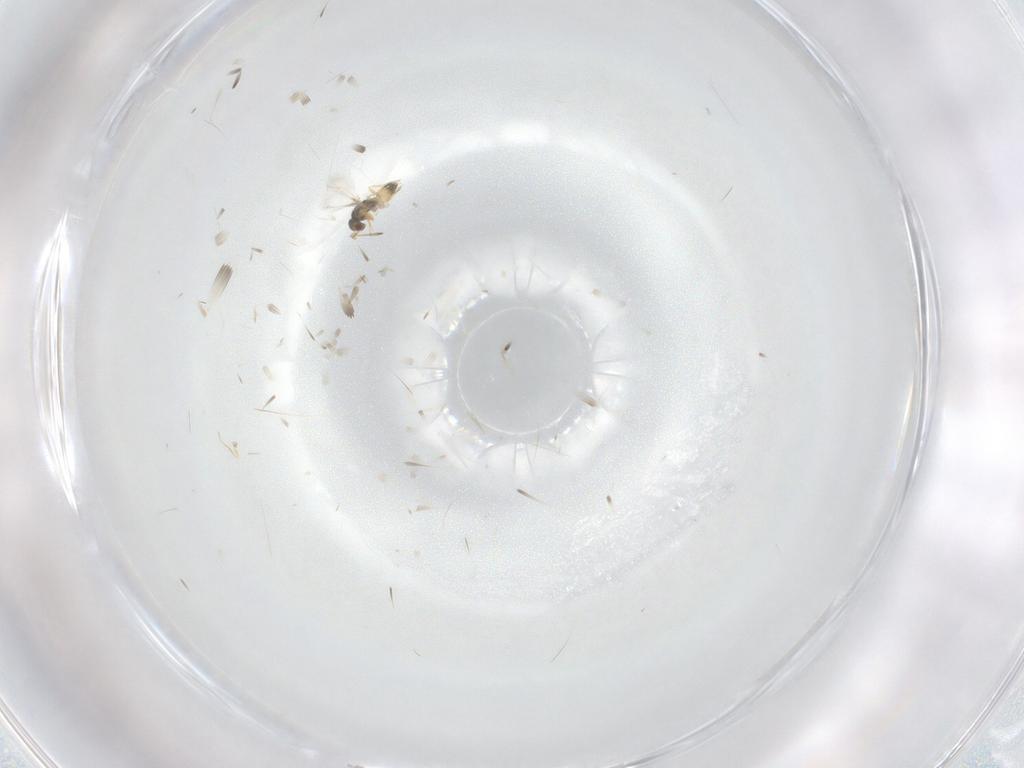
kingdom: Animalia
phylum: Arthropoda
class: Insecta
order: Hymenoptera
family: Mymaridae
